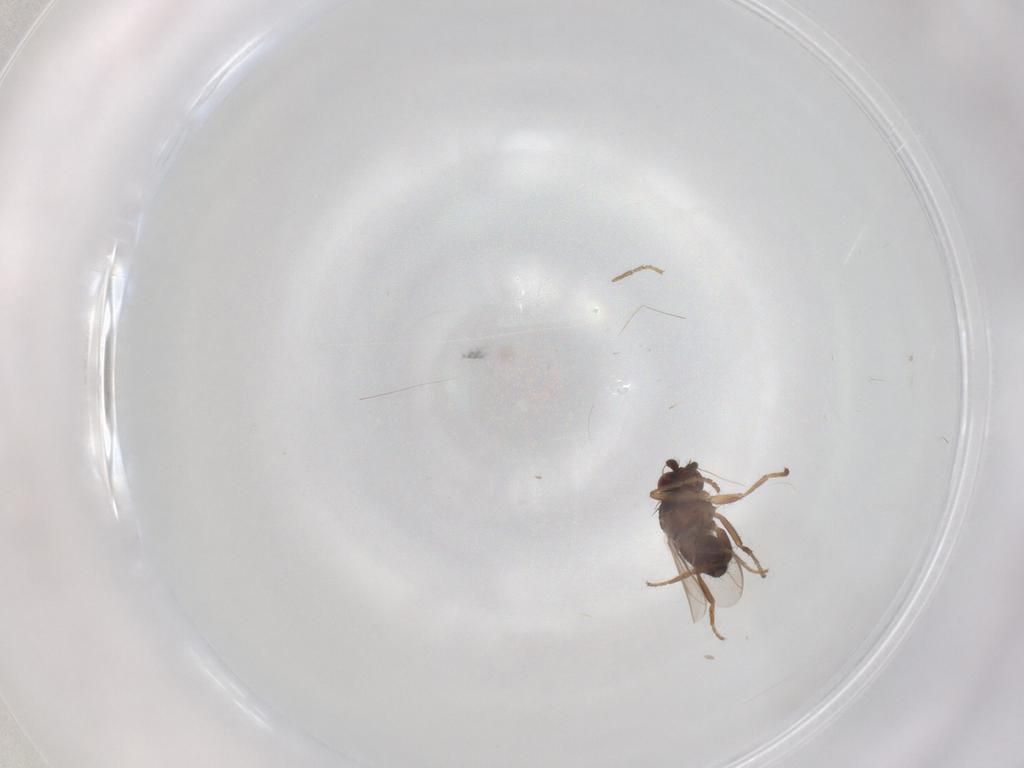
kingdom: Animalia
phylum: Arthropoda
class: Insecta
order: Diptera
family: Sphaeroceridae
